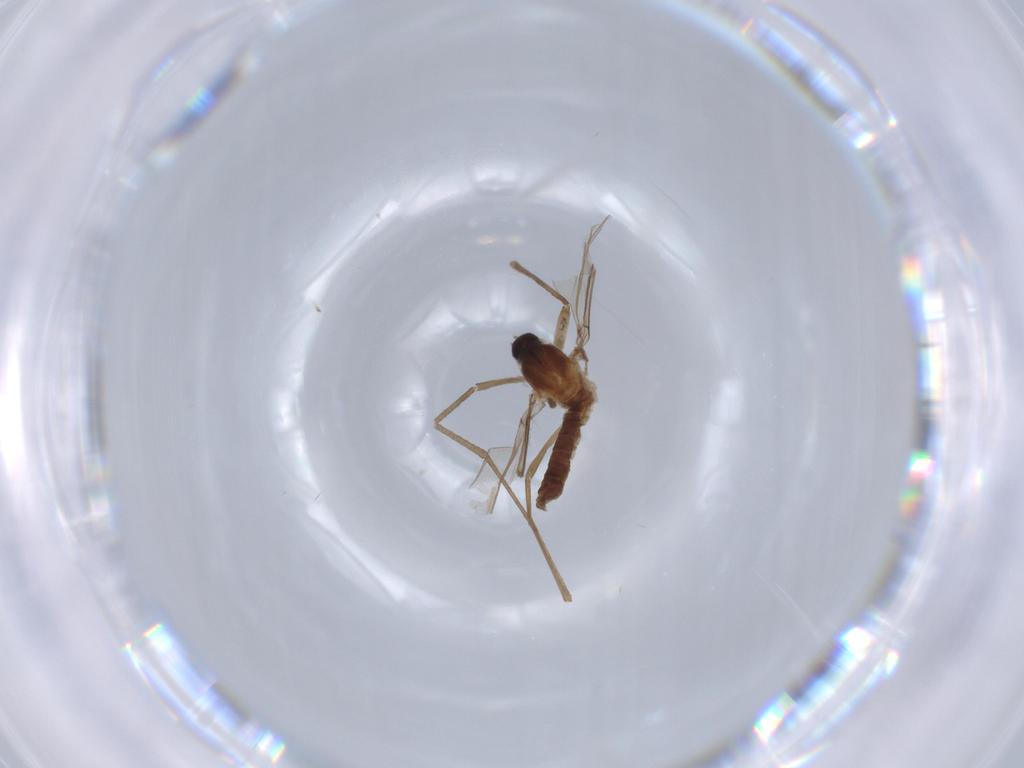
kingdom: Animalia
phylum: Arthropoda
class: Insecta
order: Diptera
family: Cecidomyiidae
